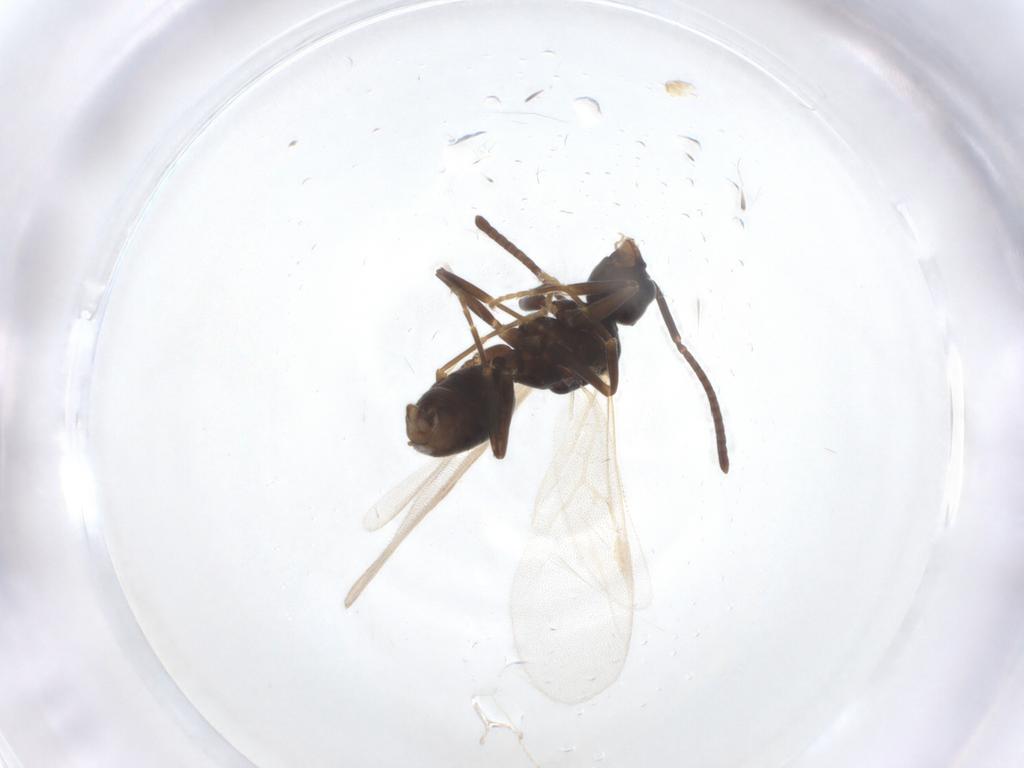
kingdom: Animalia
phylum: Arthropoda
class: Insecta
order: Hymenoptera
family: Formicidae
